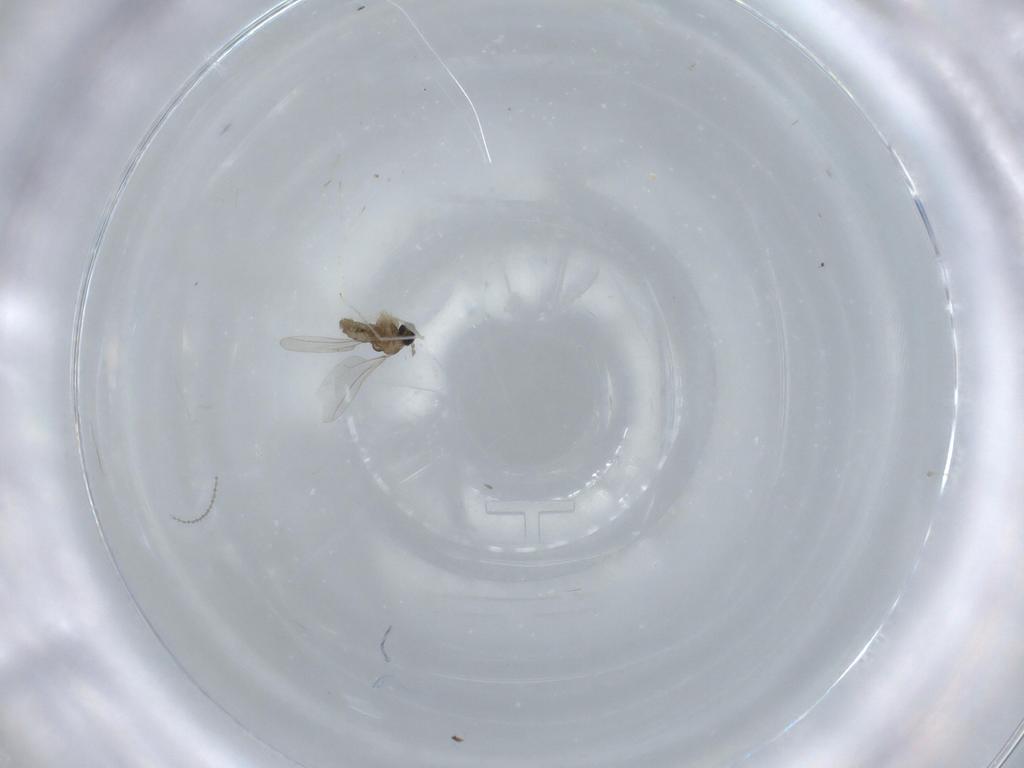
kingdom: Animalia
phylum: Arthropoda
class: Insecta
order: Diptera
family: Cecidomyiidae
